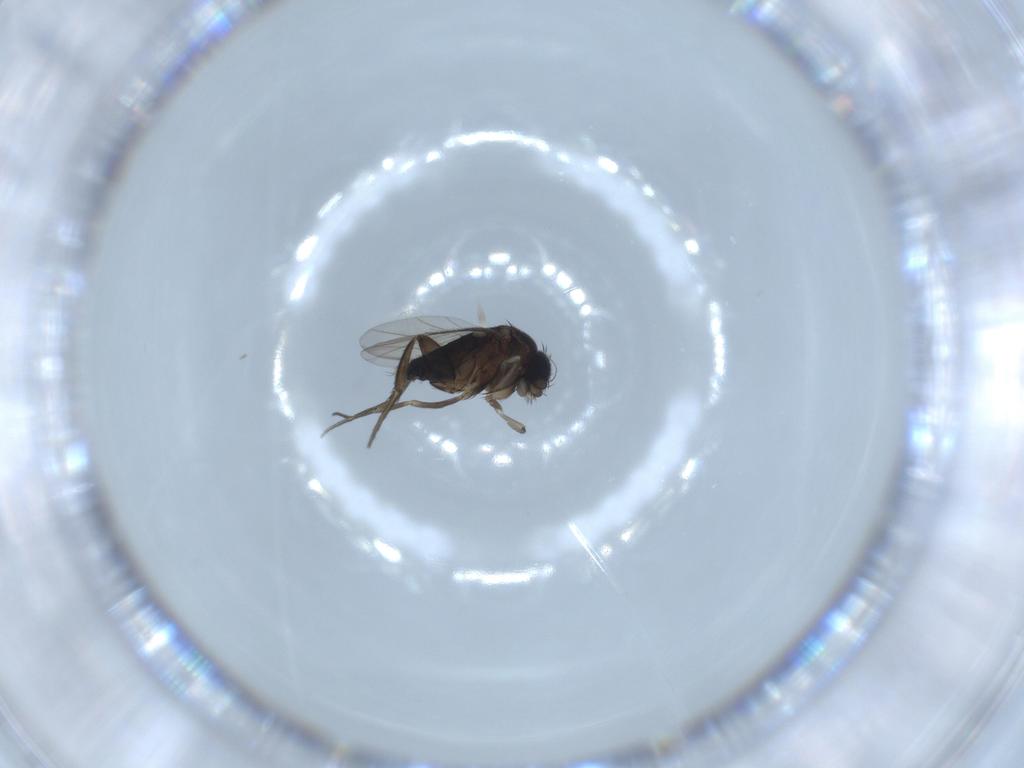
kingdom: Animalia
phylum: Arthropoda
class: Insecta
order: Diptera
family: Phoridae
